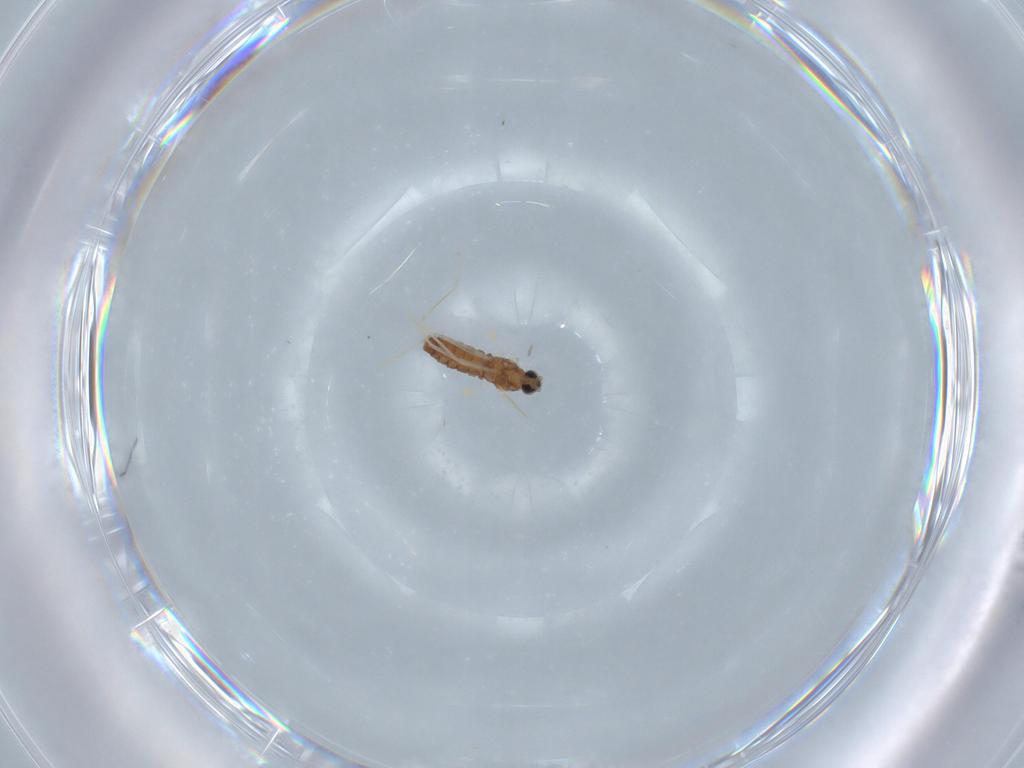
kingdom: Animalia
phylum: Arthropoda
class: Insecta
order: Diptera
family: Cecidomyiidae
